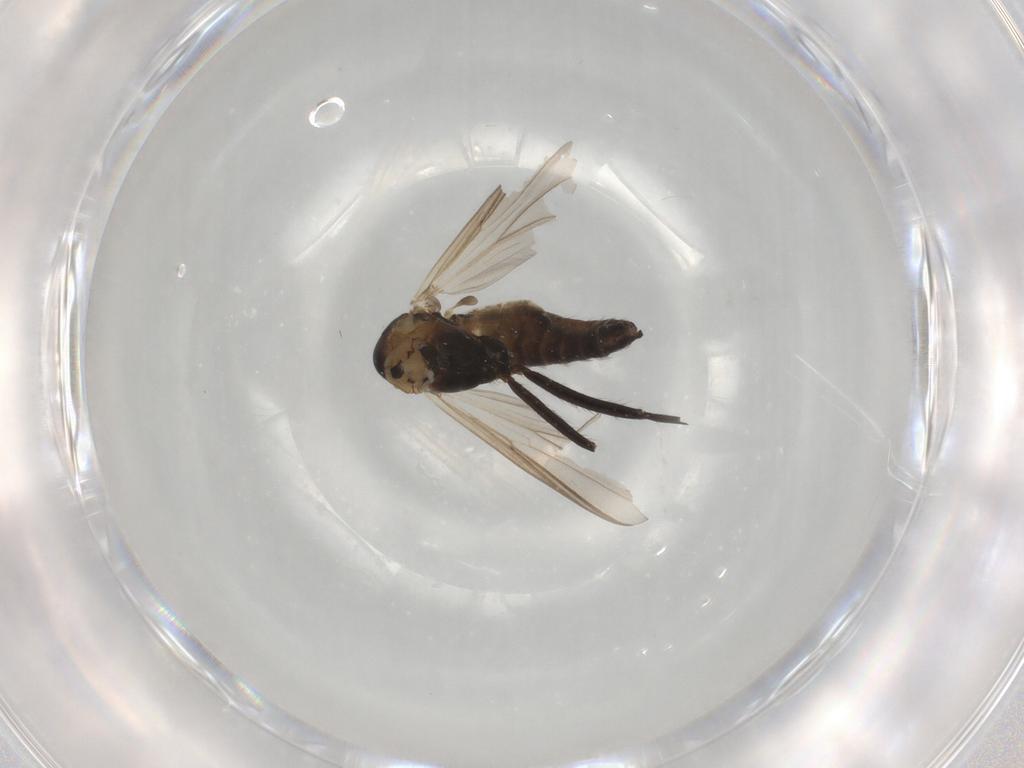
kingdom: Animalia
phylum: Arthropoda
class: Insecta
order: Diptera
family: Chironomidae
